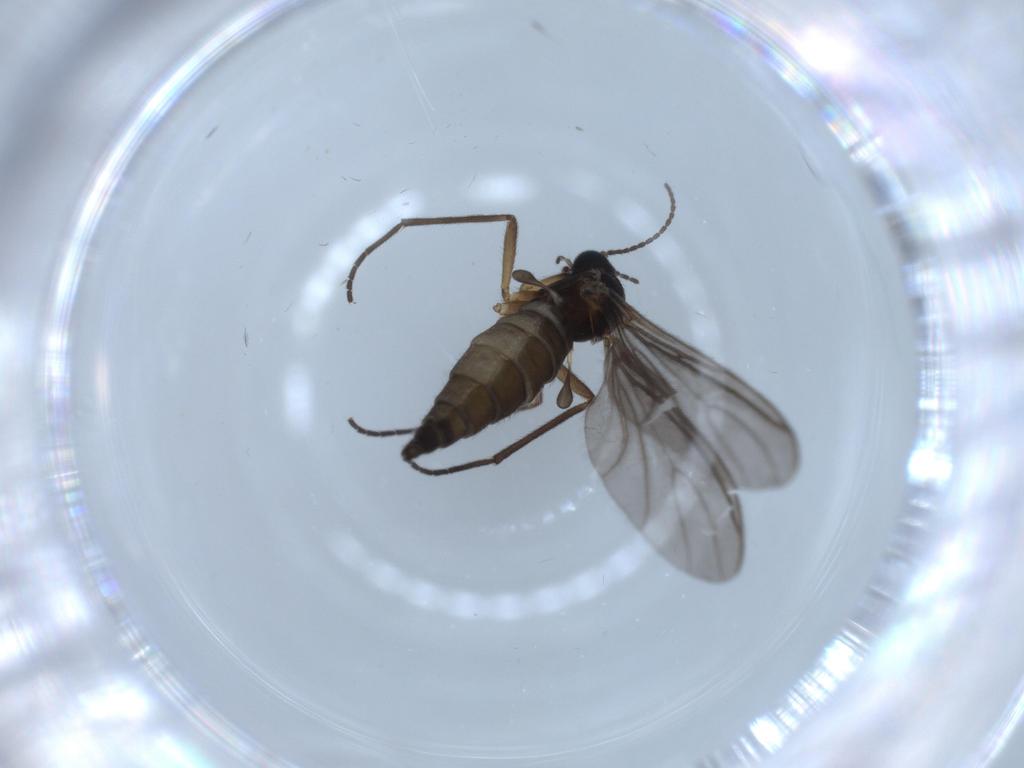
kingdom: Animalia
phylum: Arthropoda
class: Insecta
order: Diptera
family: Sciaridae
